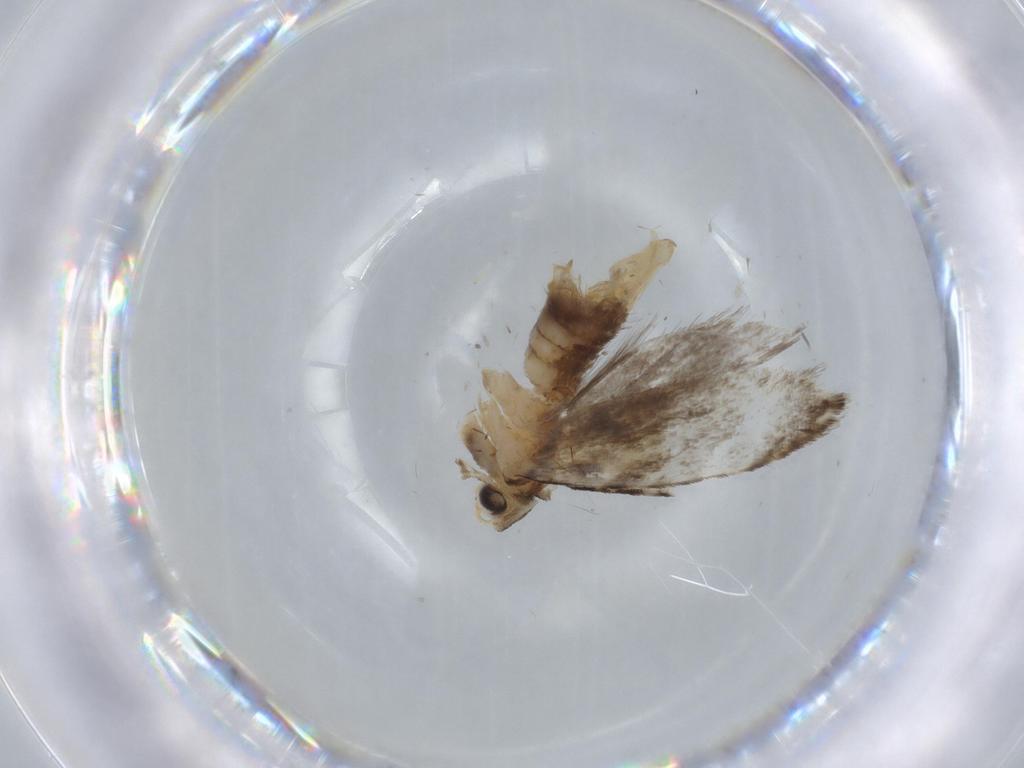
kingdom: Animalia
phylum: Arthropoda
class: Insecta
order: Lepidoptera
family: Tineidae
